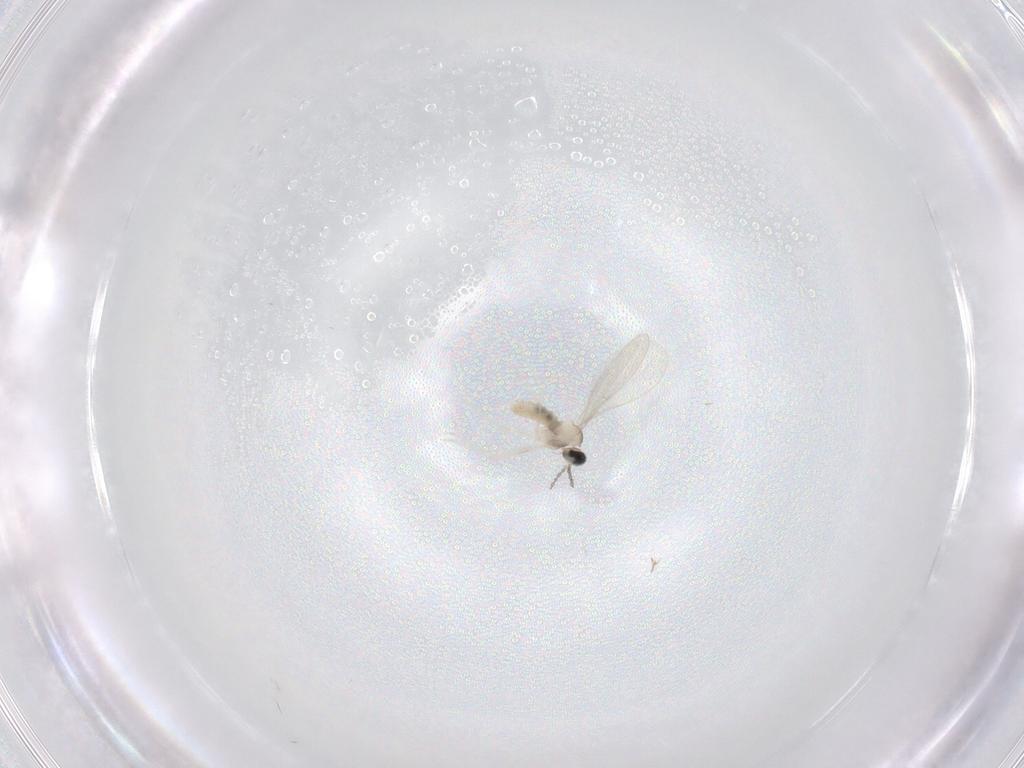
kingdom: Animalia
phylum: Arthropoda
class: Insecta
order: Diptera
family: Cecidomyiidae
